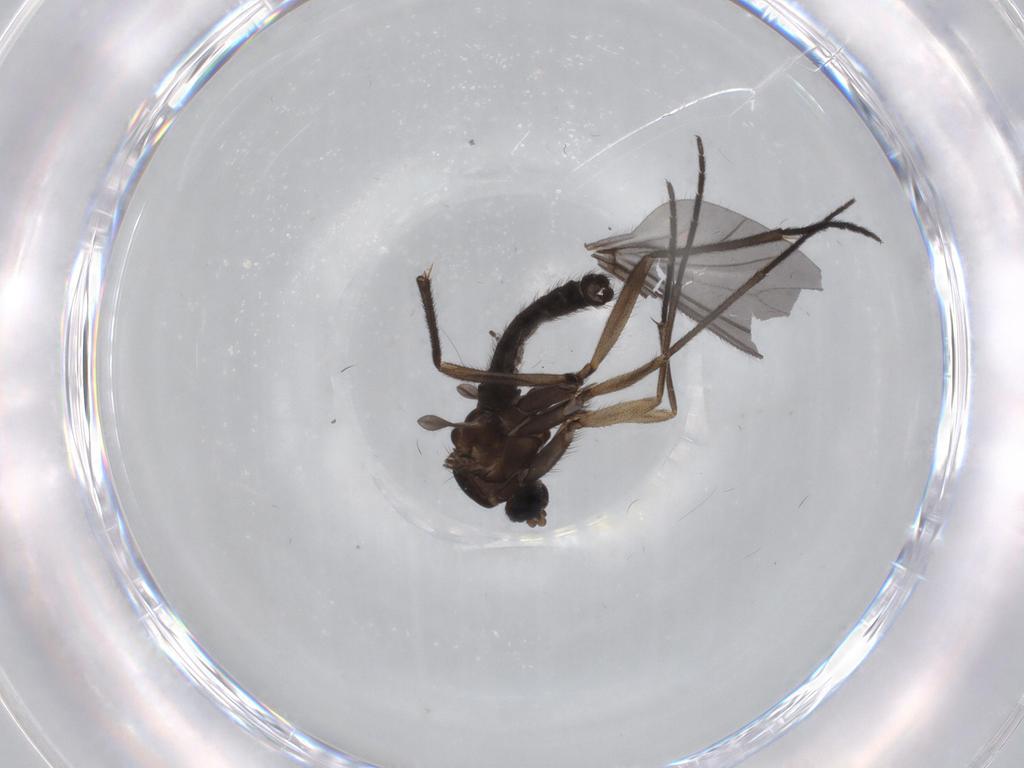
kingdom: Animalia
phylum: Arthropoda
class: Insecta
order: Diptera
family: Sciaridae
